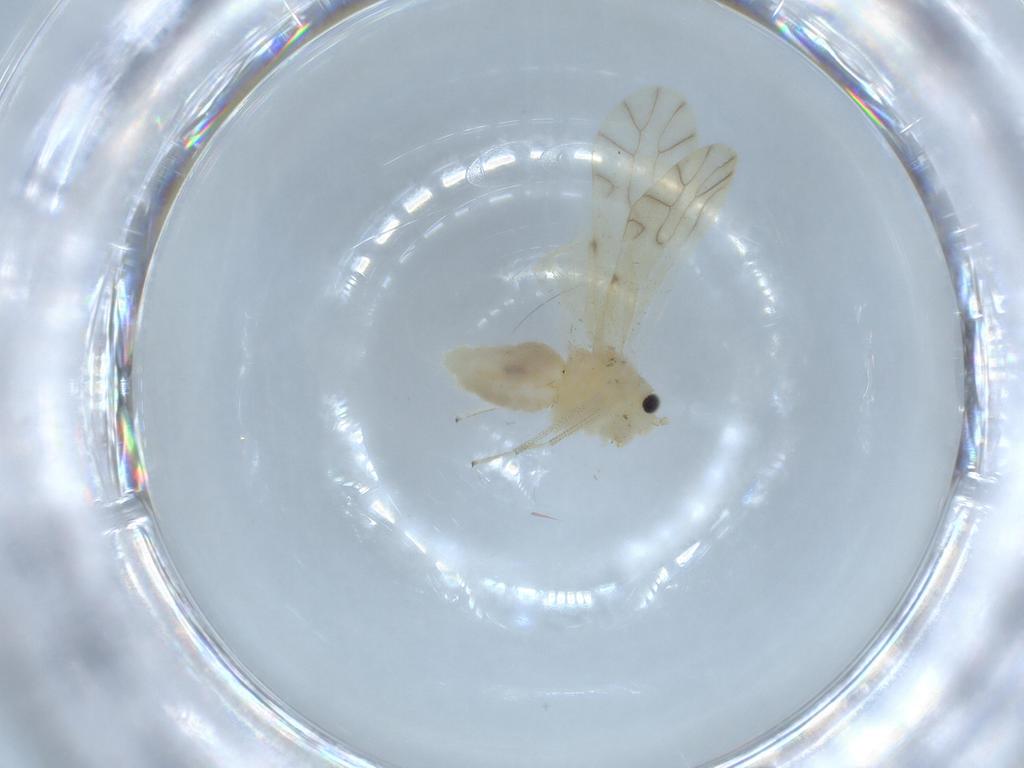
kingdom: Animalia
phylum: Arthropoda
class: Insecta
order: Psocodea
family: Caeciliusidae
